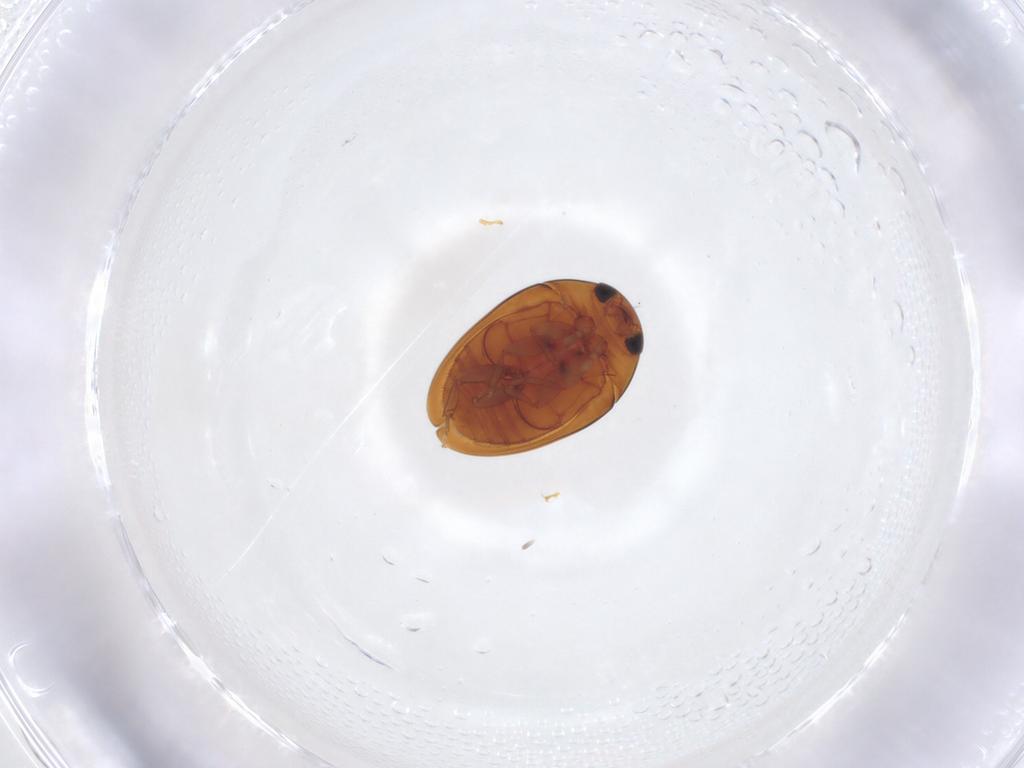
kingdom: Animalia
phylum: Arthropoda
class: Insecta
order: Coleoptera
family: Phalacridae
